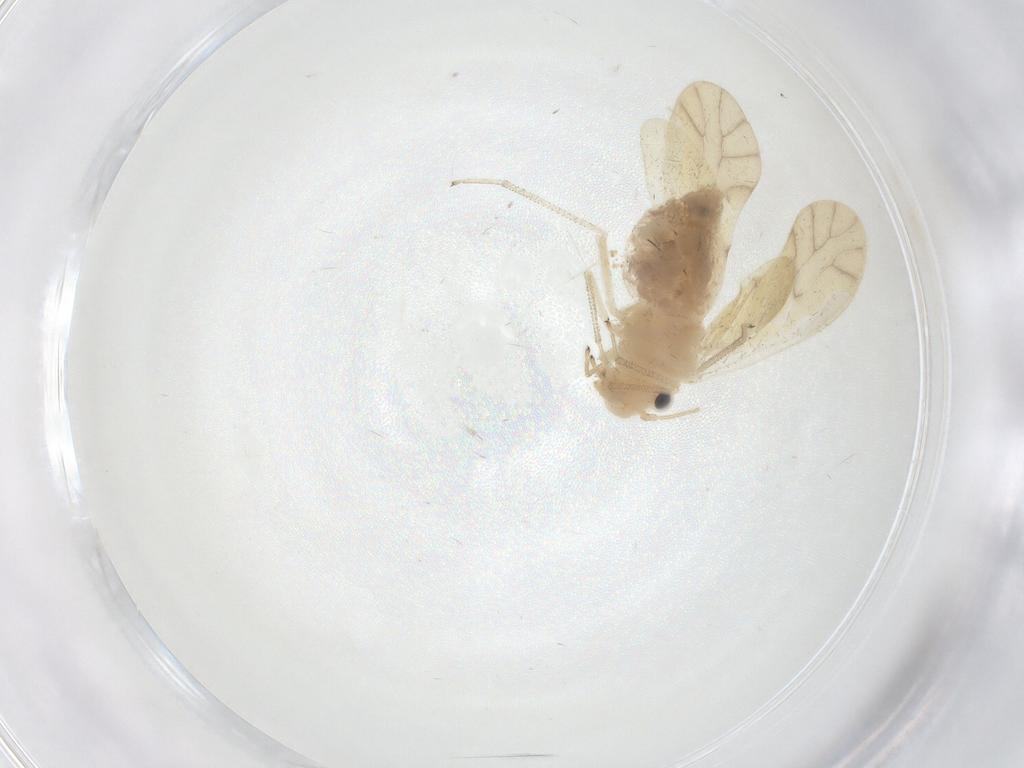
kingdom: Animalia
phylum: Arthropoda
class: Insecta
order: Psocodea
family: Caeciliusidae
